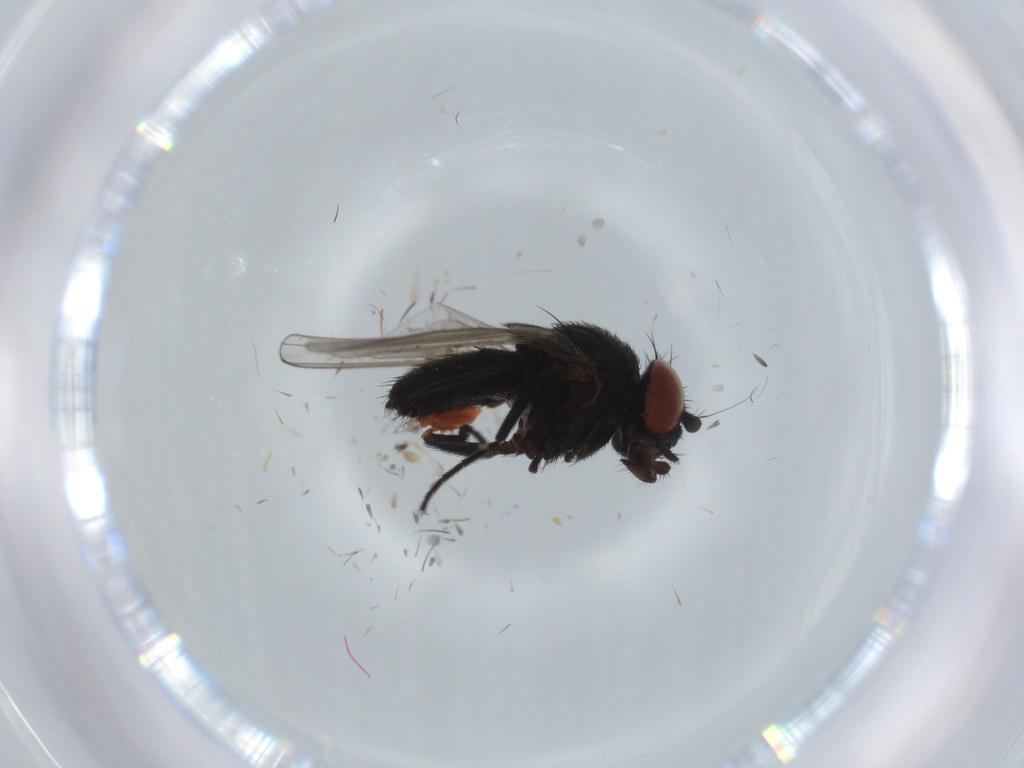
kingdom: Animalia
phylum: Arthropoda
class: Insecta
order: Diptera
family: Milichiidae
